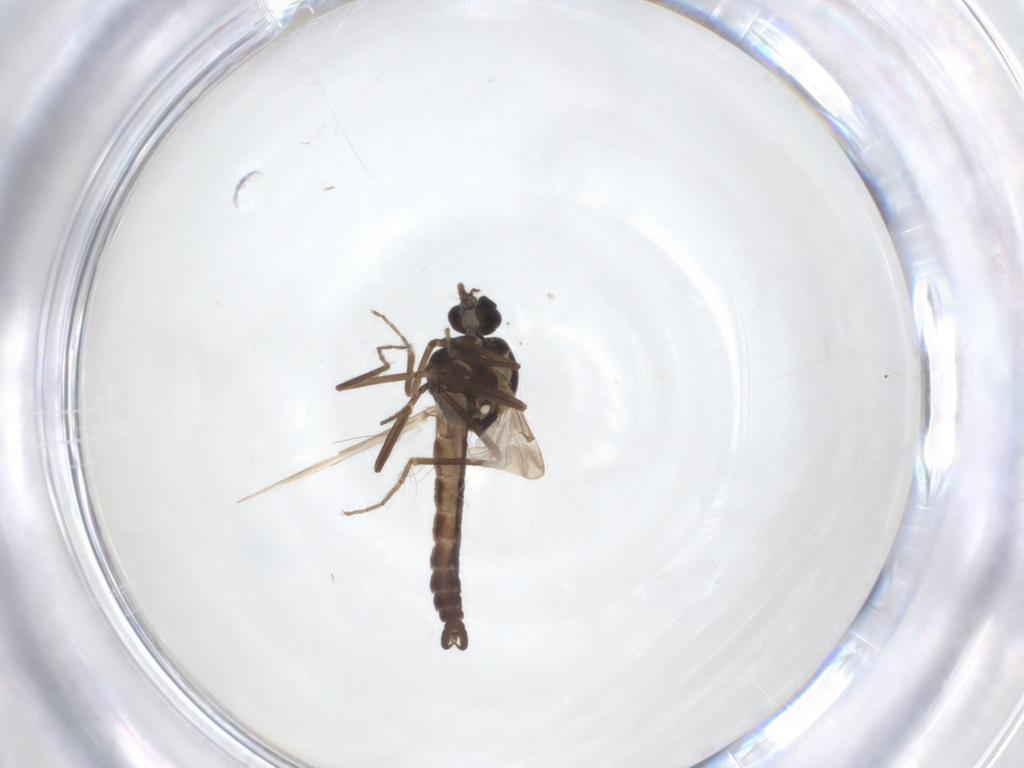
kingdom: Animalia
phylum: Arthropoda
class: Insecta
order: Diptera
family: Ceratopogonidae
